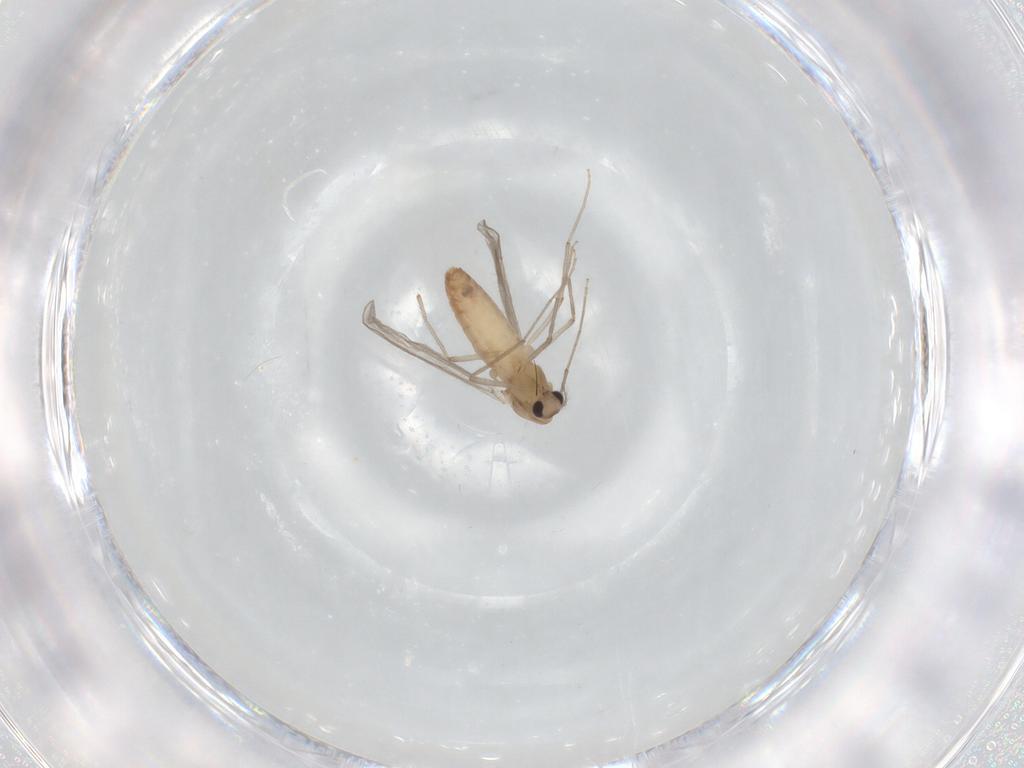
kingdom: Animalia
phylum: Arthropoda
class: Insecta
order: Diptera
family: Chironomidae
